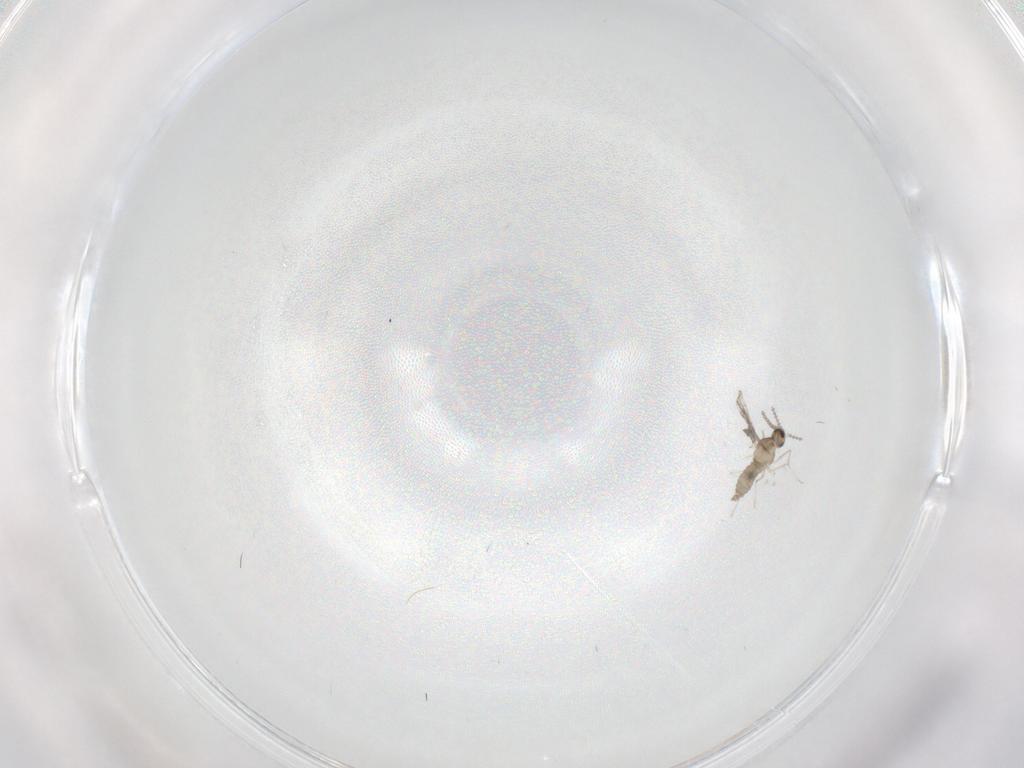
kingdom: Animalia
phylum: Arthropoda
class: Insecta
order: Diptera
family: Cecidomyiidae
